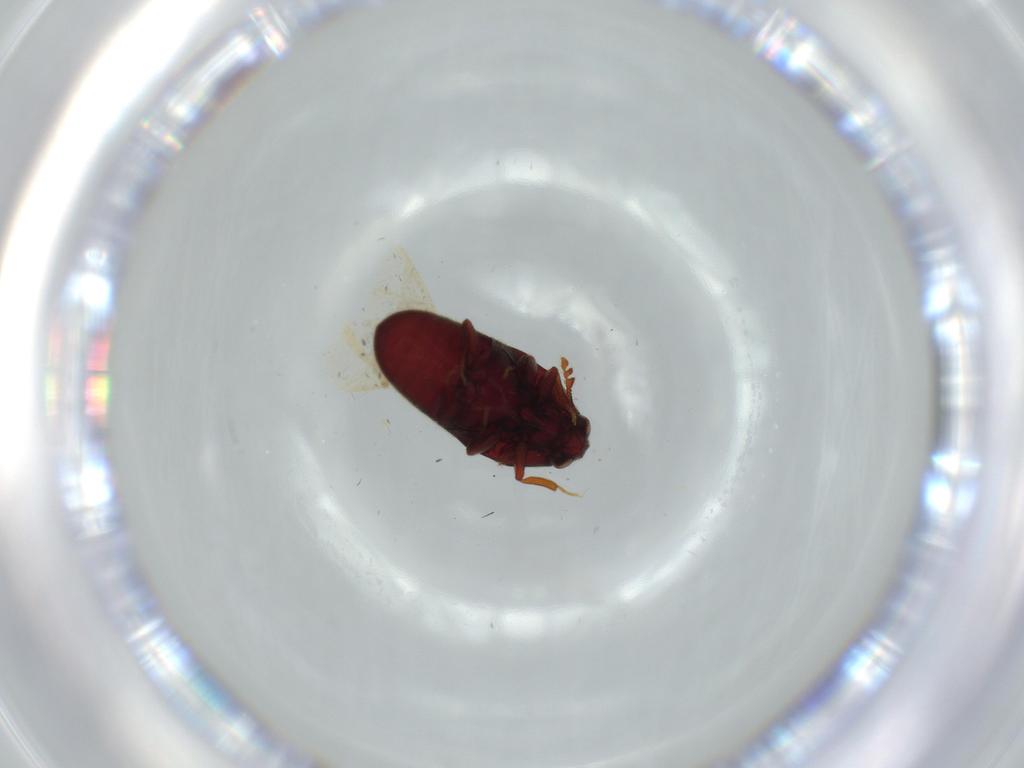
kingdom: Animalia
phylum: Arthropoda
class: Insecta
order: Coleoptera
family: Throscidae
